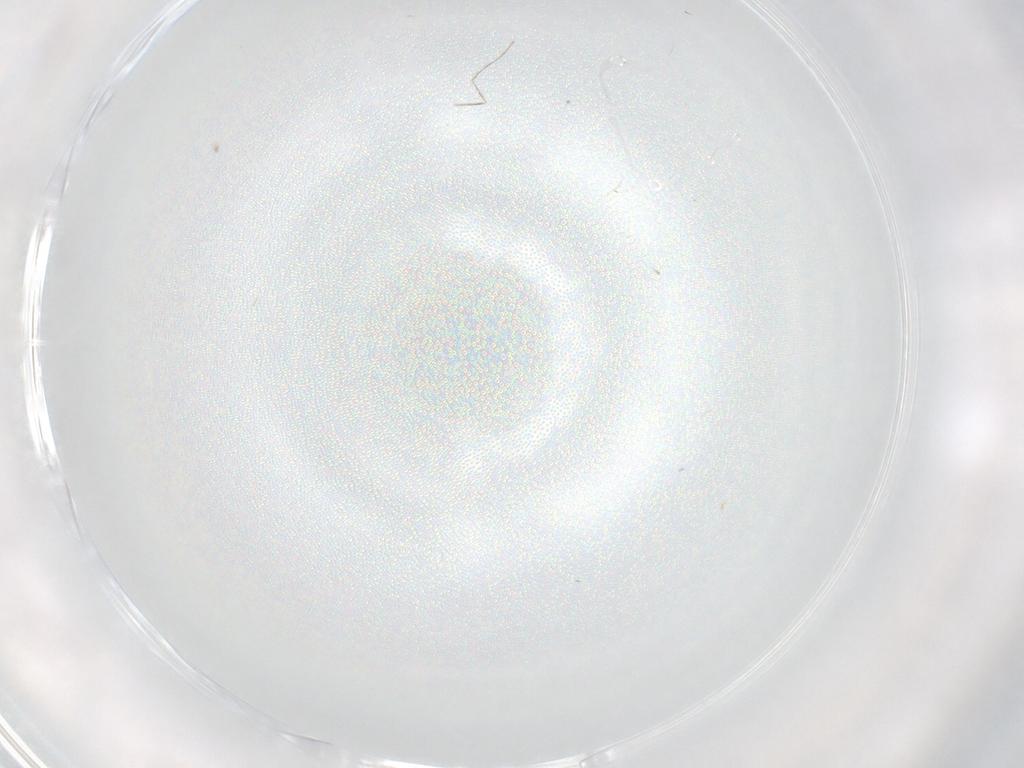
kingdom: Animalia
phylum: Arthropoda
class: Insecta
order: Diptera
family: Cecidomyiidae
